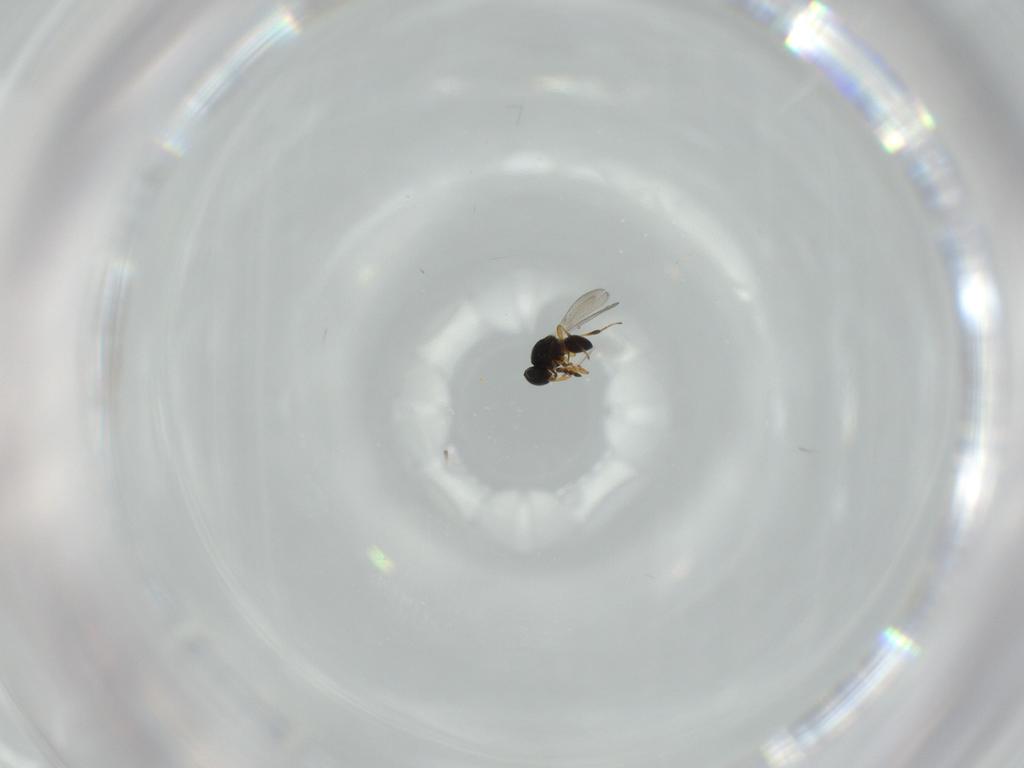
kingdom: Animalia
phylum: Arthropoda
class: Insecta
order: Hymenoptera
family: Platygastridae
